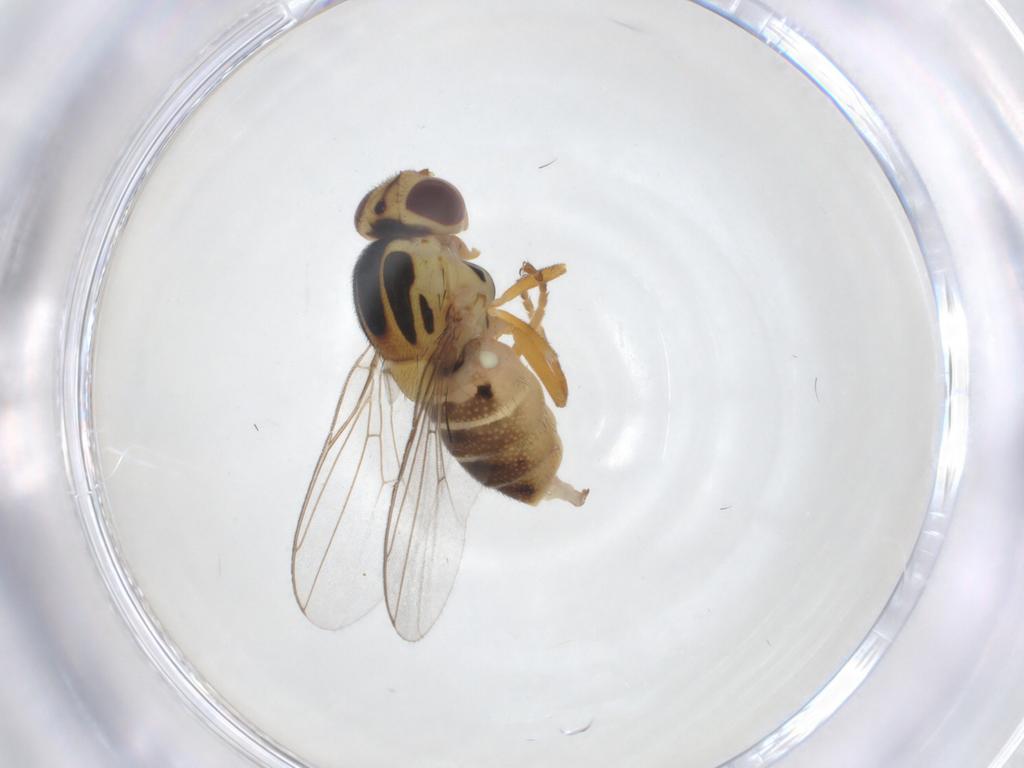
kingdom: Animalia
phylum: Arthropoda
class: Insecta
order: Diptera
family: Chloropidae
